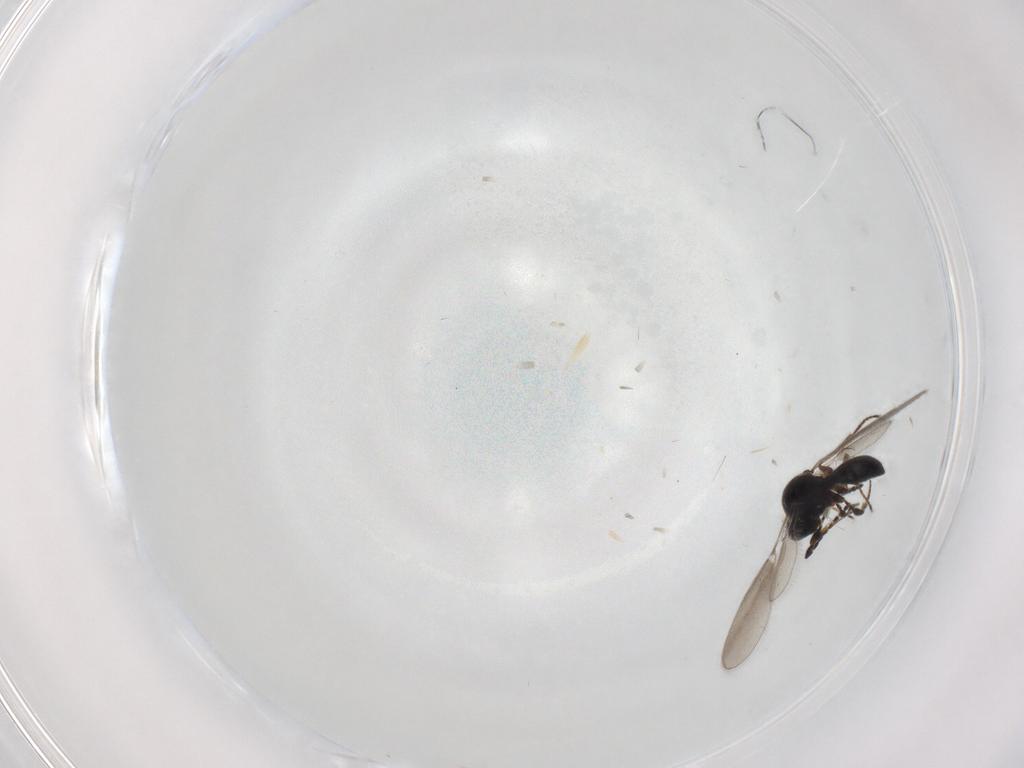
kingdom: Animalia
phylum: Arthropoda
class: Insecta
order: Hymenoptera
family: Platygastridae
